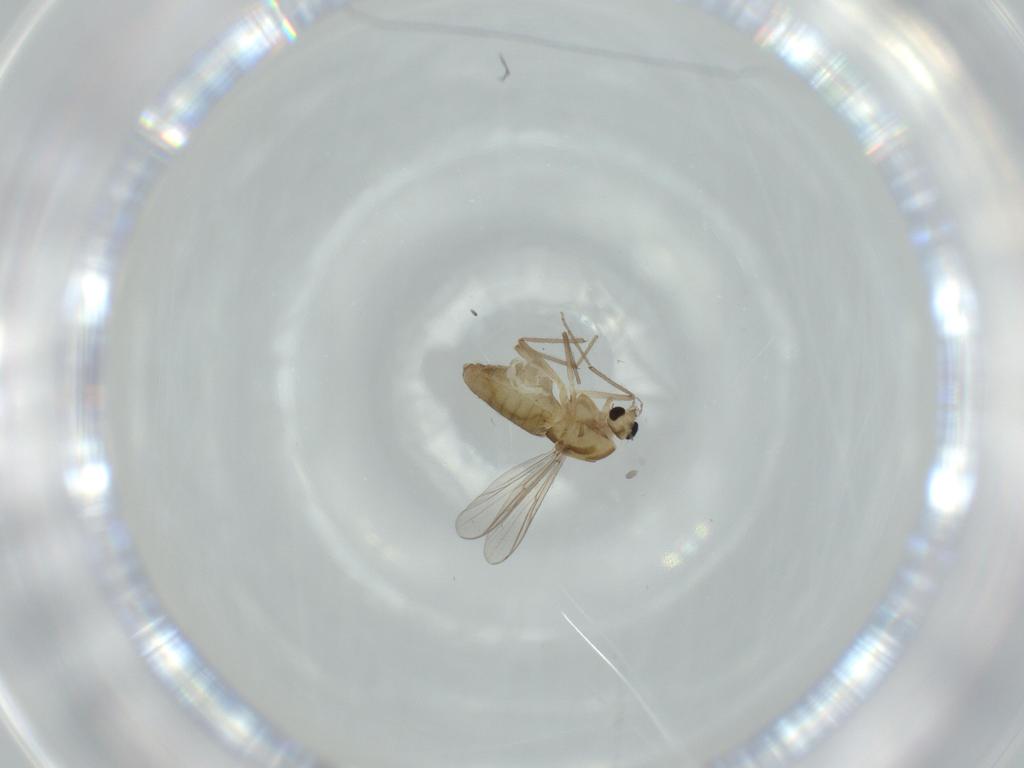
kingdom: Animalia
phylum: Arthropoda
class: Insecta
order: Diptera
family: Chironomidae
